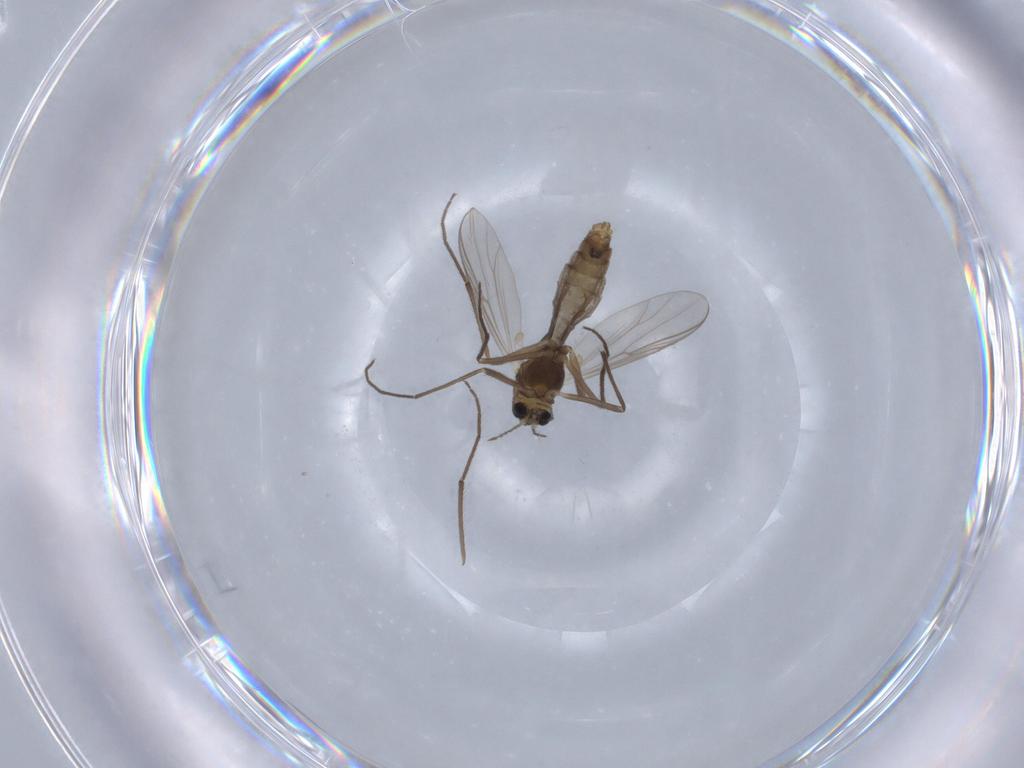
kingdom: Animalia
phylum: Arthropoda
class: Insecta
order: Diptera
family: Chironomidae
